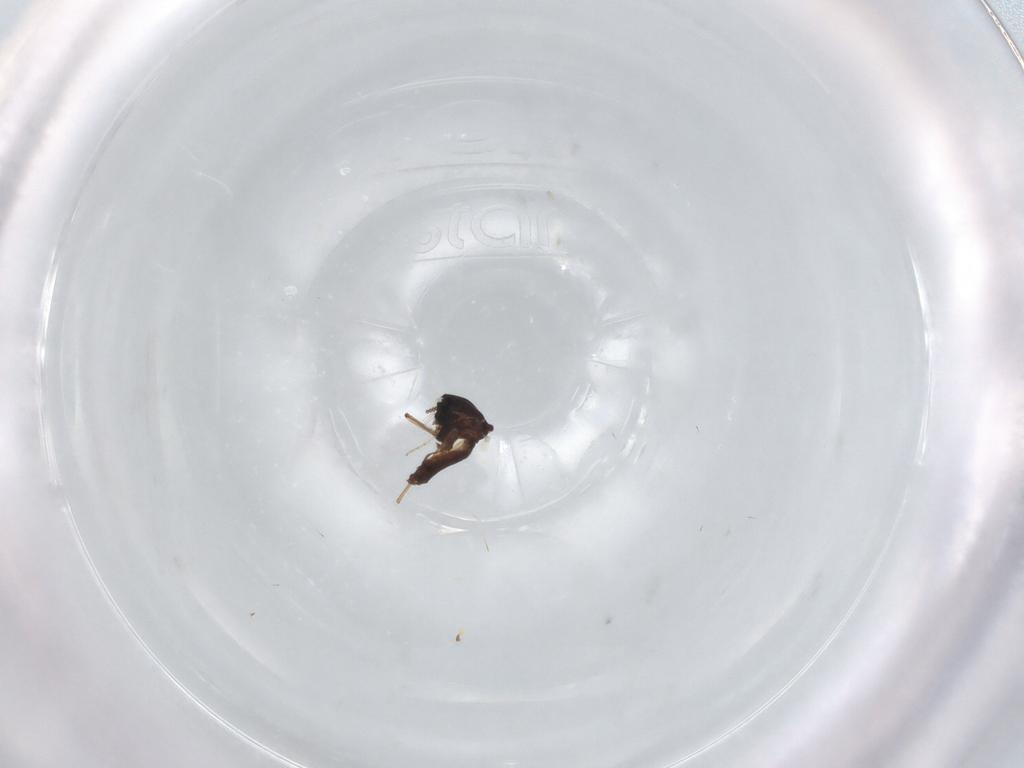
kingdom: Animalia
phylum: Arthropoda
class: Insecta
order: Diptera
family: Ceratopogonidae
